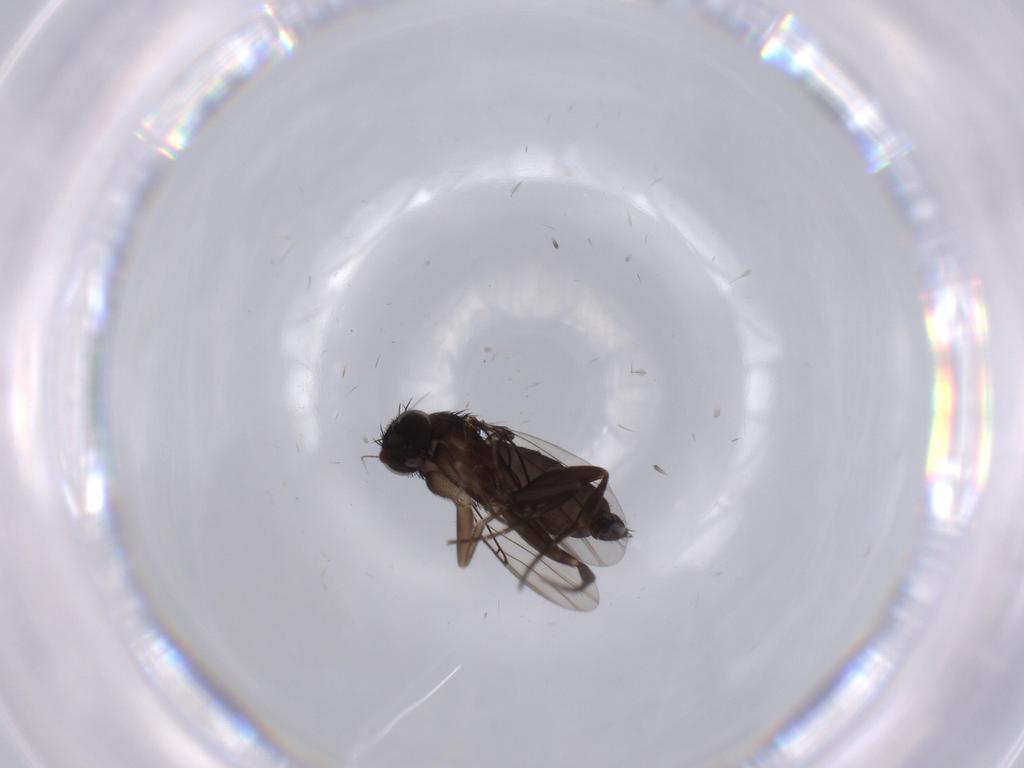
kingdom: Animalia
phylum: Arthropoda
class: Insecta
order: Diptera
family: Phoridae
